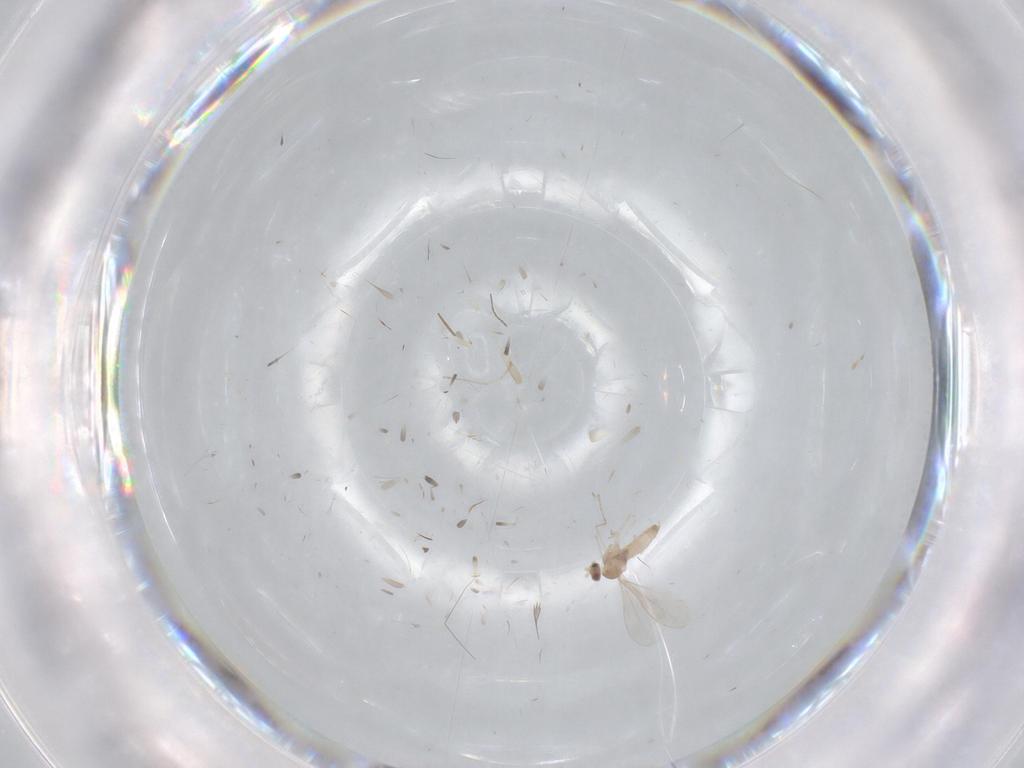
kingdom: Animalia
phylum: Arthropoda
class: Insecta
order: Diptera
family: Cecidomyiidae
